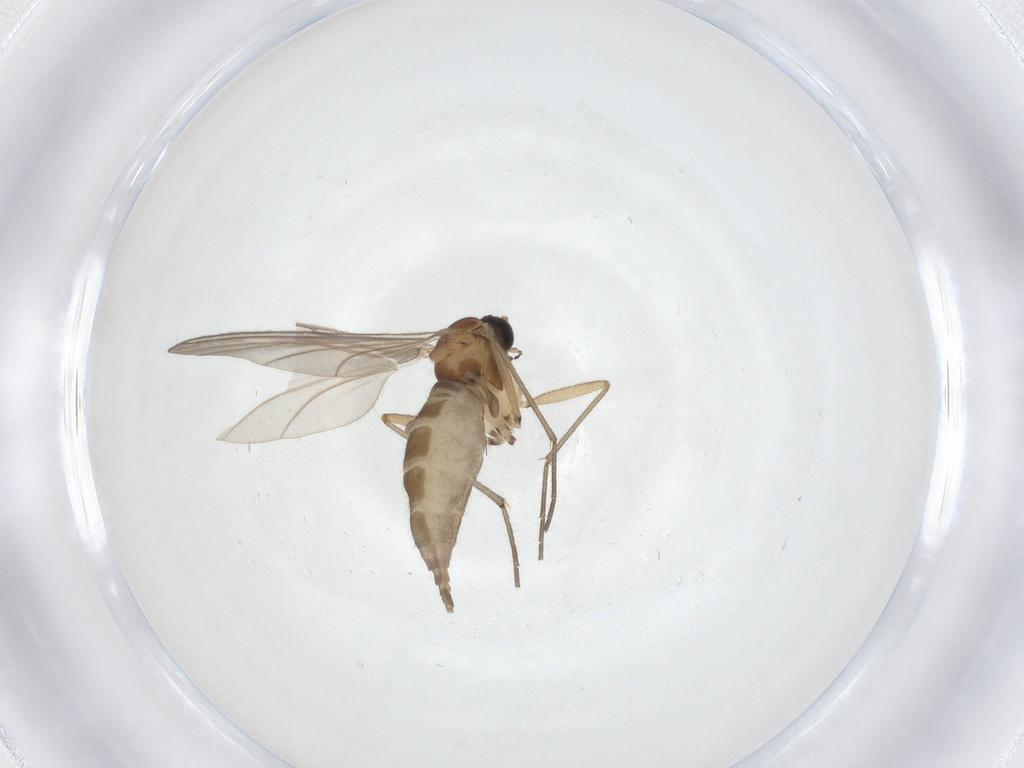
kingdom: Animalia
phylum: Arthropoda
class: Insecta
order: Diptera
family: Sciaridae
